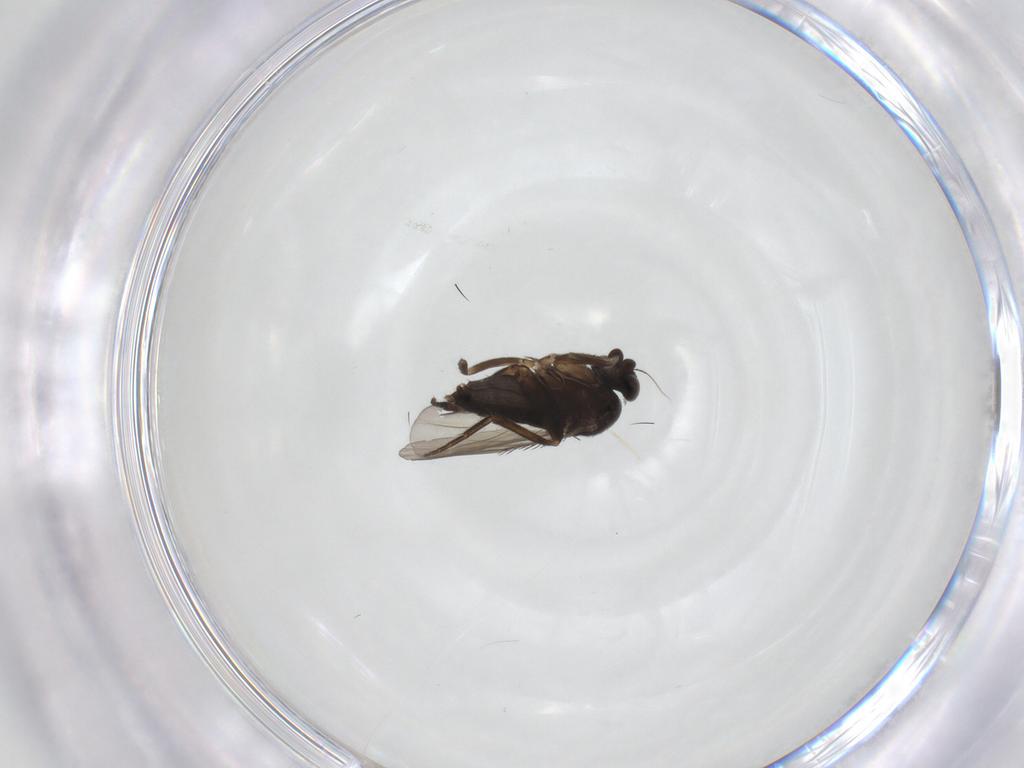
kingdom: Animalia
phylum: Arthropoda
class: Insecta
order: Diptera
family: Phoridae
